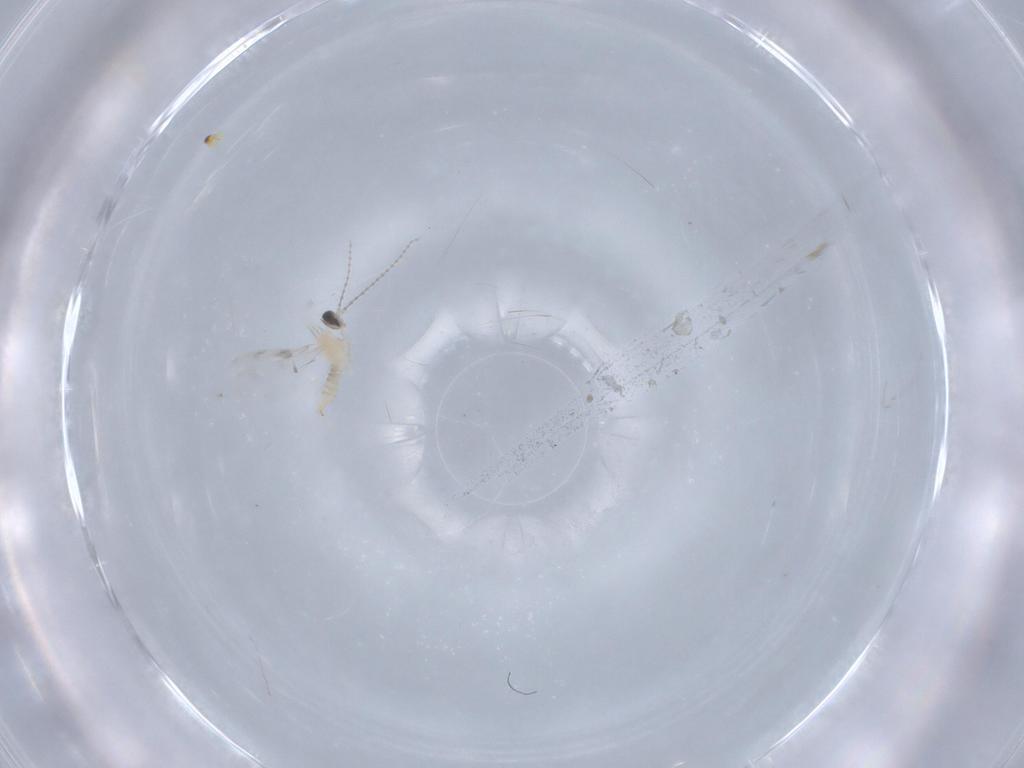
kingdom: Animalia
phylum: Arthropoda
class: Insecta
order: Diptera
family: Cecidomyiidae
